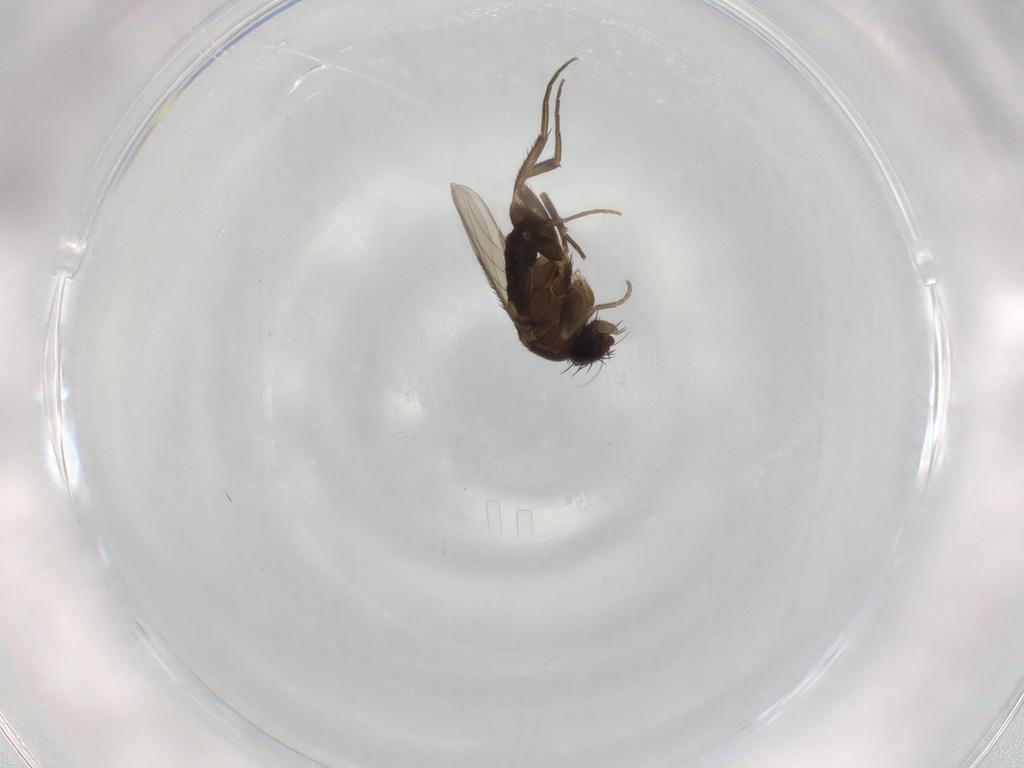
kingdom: Animalia
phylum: Arthropoda
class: Insecta
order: Diptera
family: Phoridae
